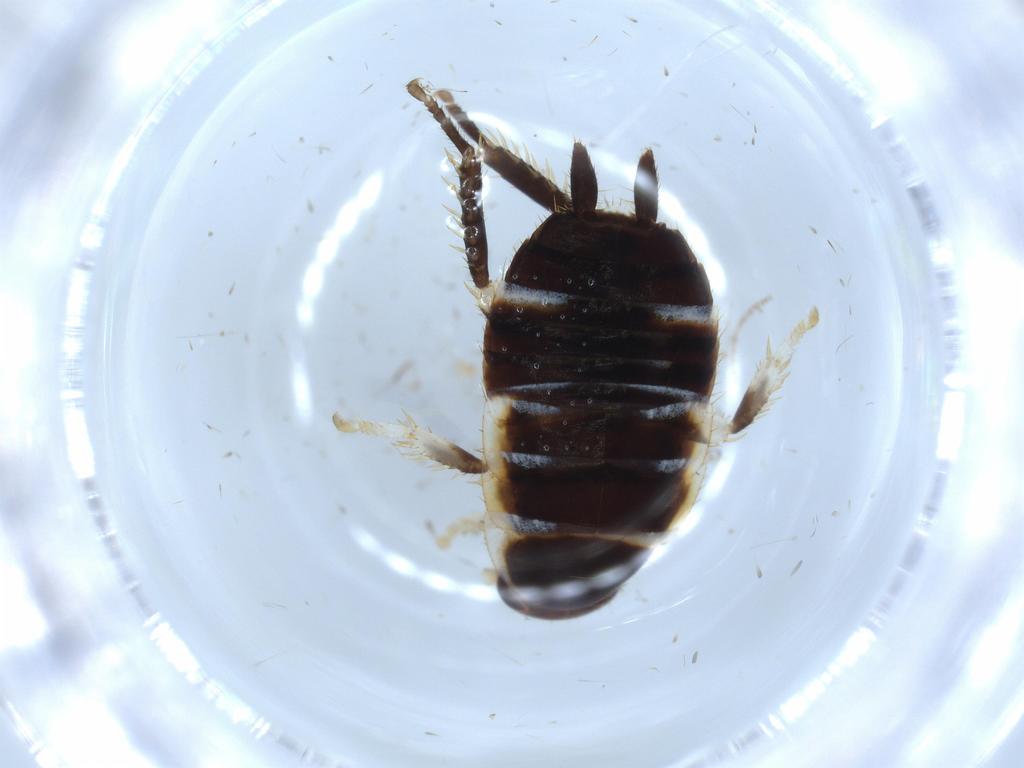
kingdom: Animalia
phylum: Arthropoda
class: Insecta
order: Blattodea
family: Ectobiidae
